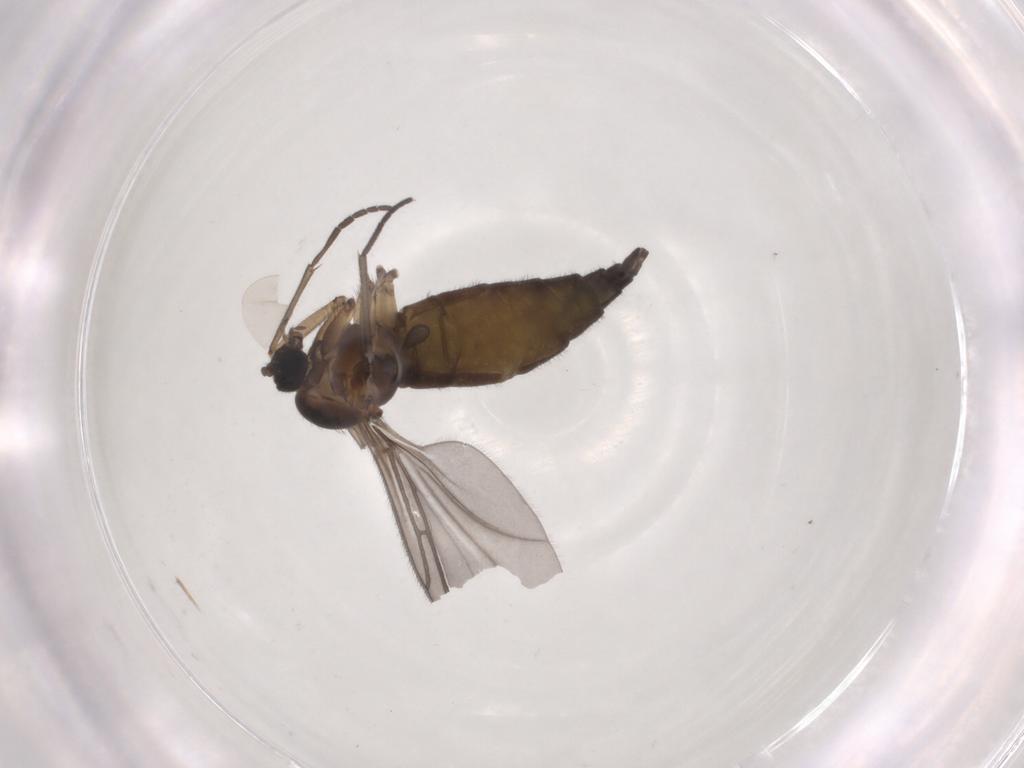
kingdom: Animalia
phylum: Arthropoda
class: Insecta
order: Diptera
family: Sciaridae
